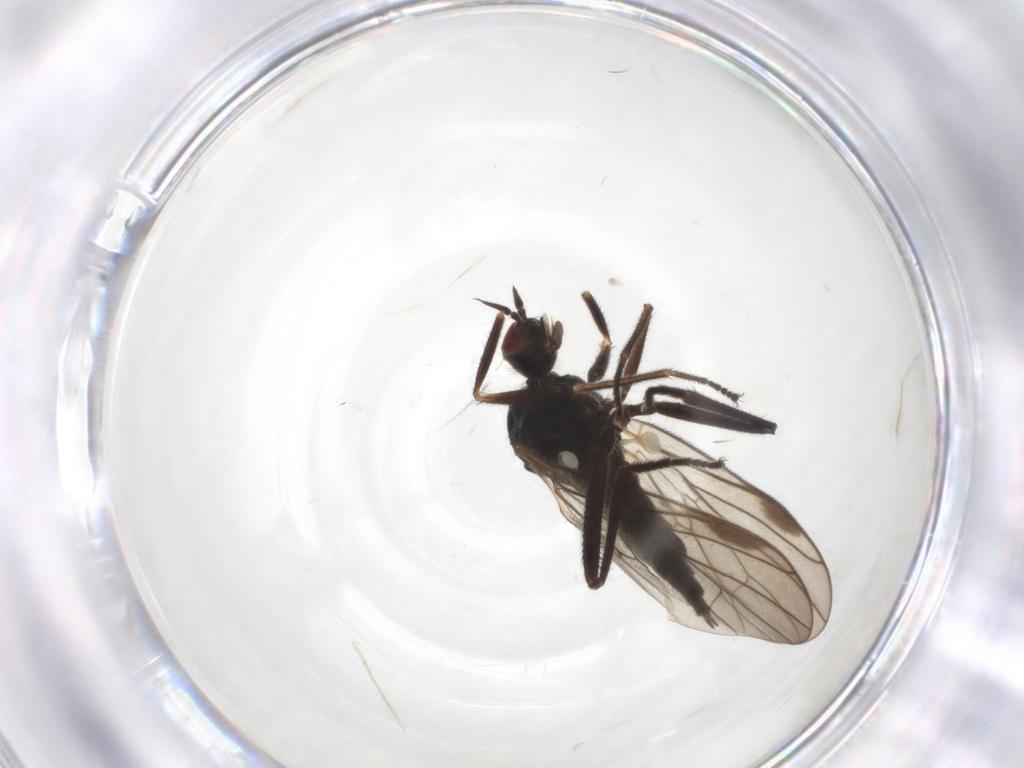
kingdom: Animalia
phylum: Arthropoda
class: Insecta
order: Diptera
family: Hybotidae
